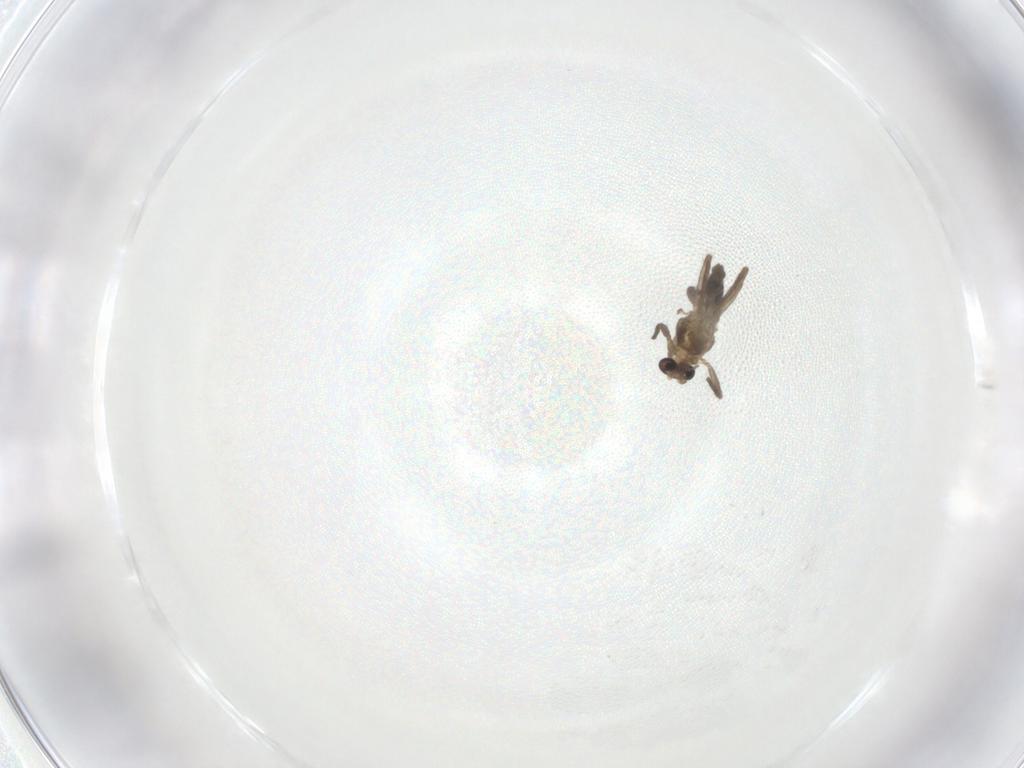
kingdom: Animalia
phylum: Arthropoda
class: Insecta
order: Diptera
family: Chironomidae
